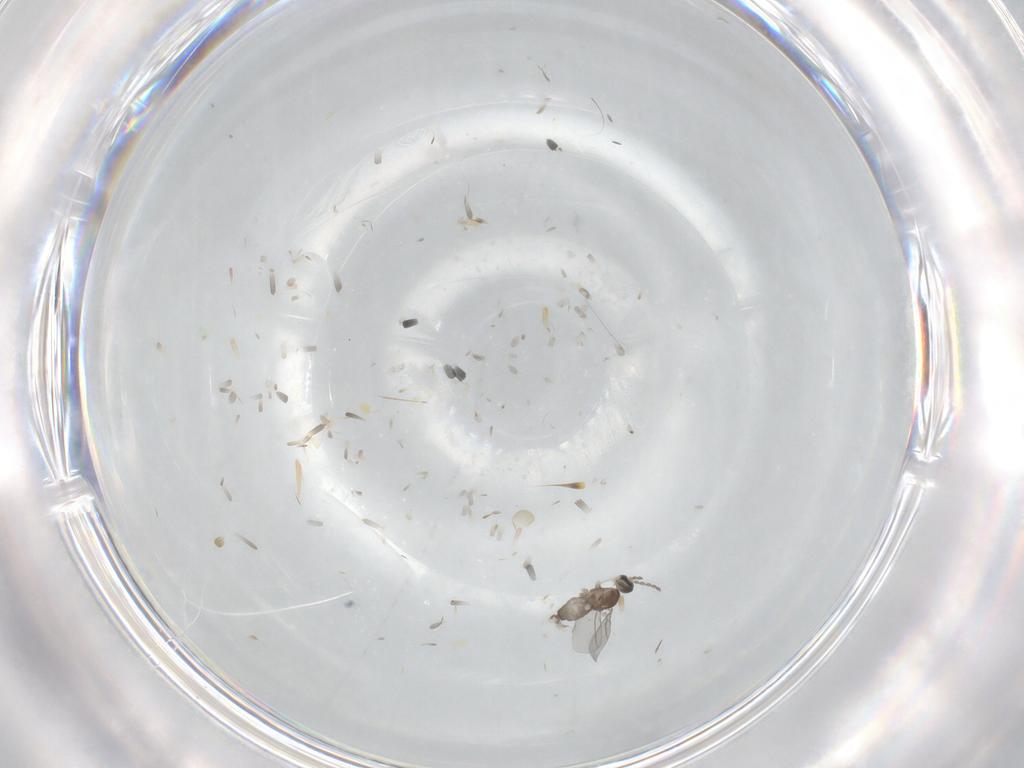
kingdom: Animalia
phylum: Arthropoda
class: Insecta
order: Diptera
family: Cecidomyiidae
